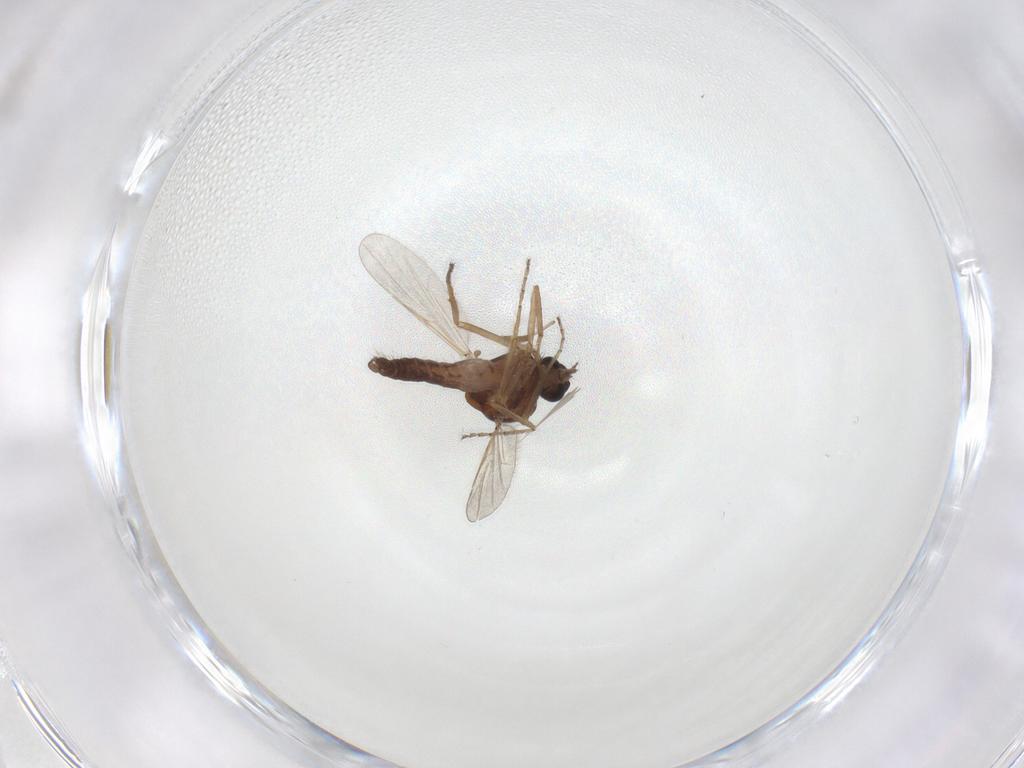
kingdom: Animalia
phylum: Arthropoda
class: Insecta
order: Diptera
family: Ceratopogonidae
